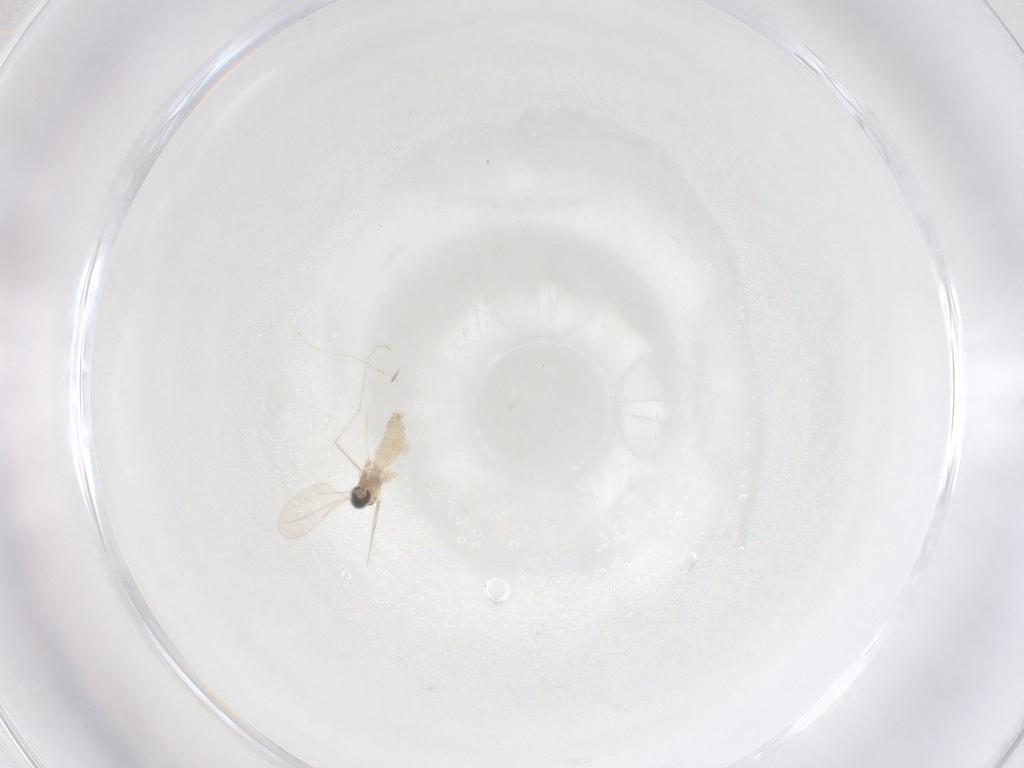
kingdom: Animalia
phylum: Arthropoda
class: Insecta
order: Diptera
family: Cecidomyiidae
